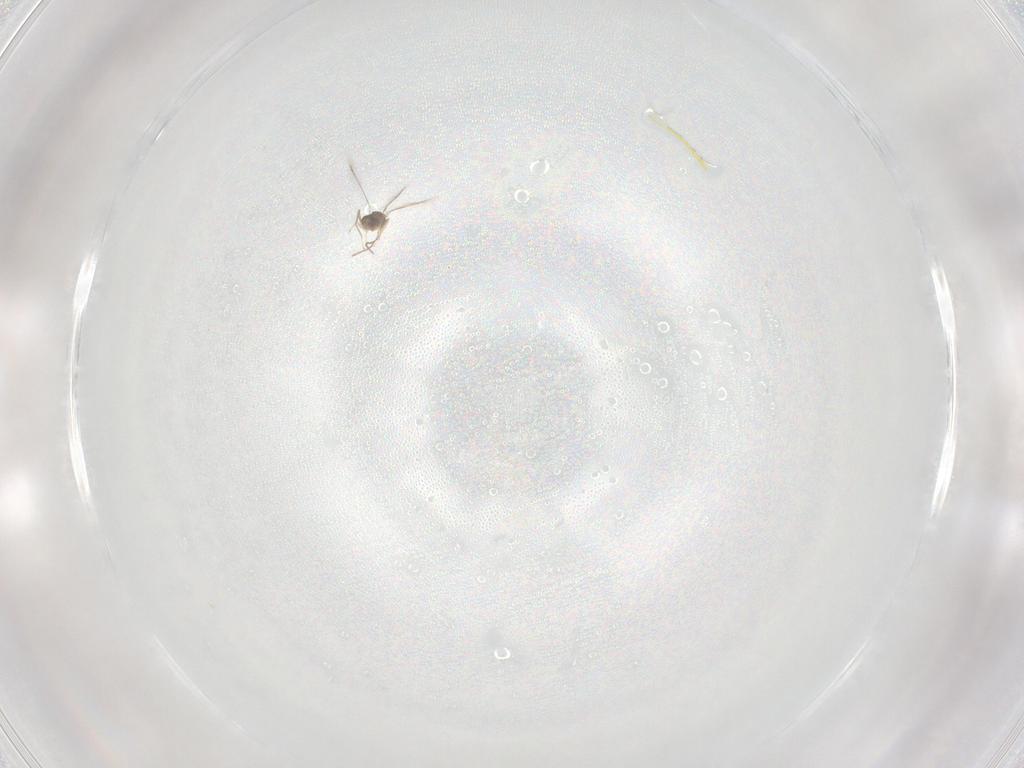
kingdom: Animalia
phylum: Arthropoda
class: Insecta
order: Hymenoptera
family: Mymaridae
